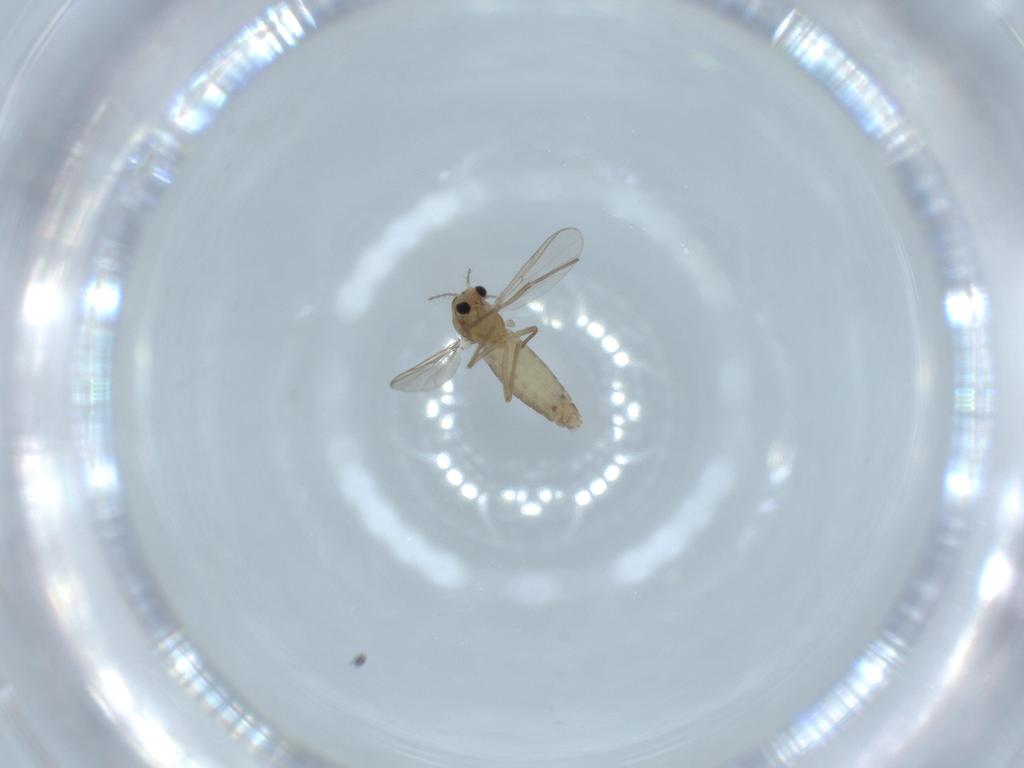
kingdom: Animalia
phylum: Arthropoda
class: Insecta
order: Diptera
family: Chironomidae
